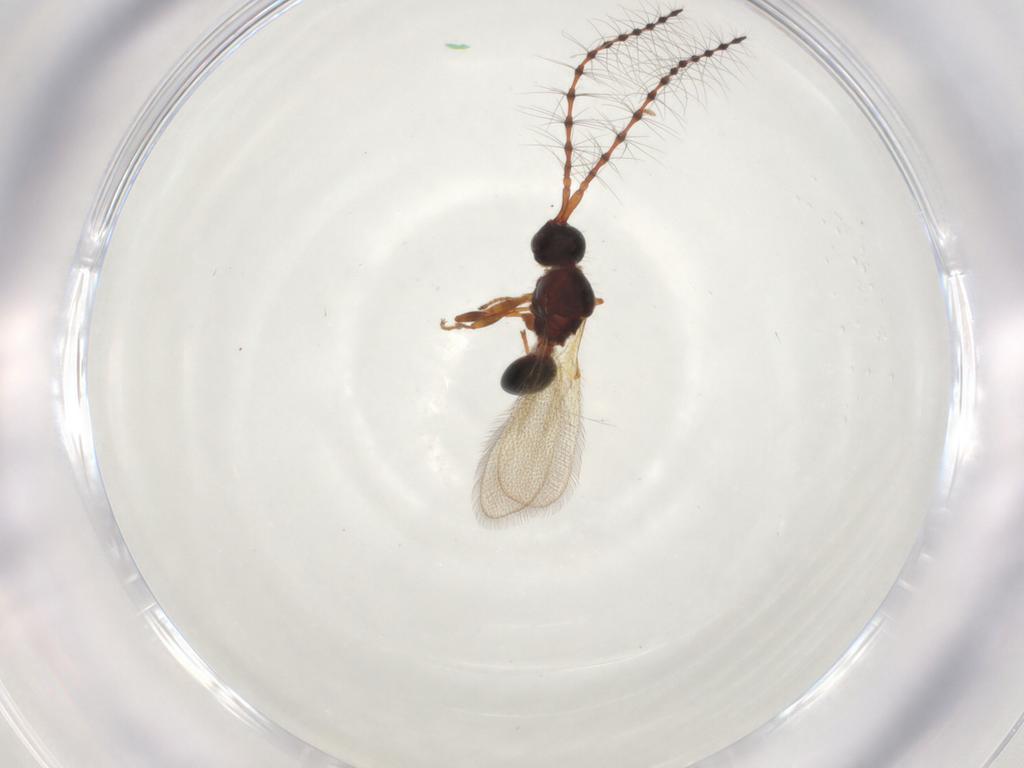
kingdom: Animalia
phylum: Arthropoda
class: Insecta
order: Hymenoptera
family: Diapriidae
